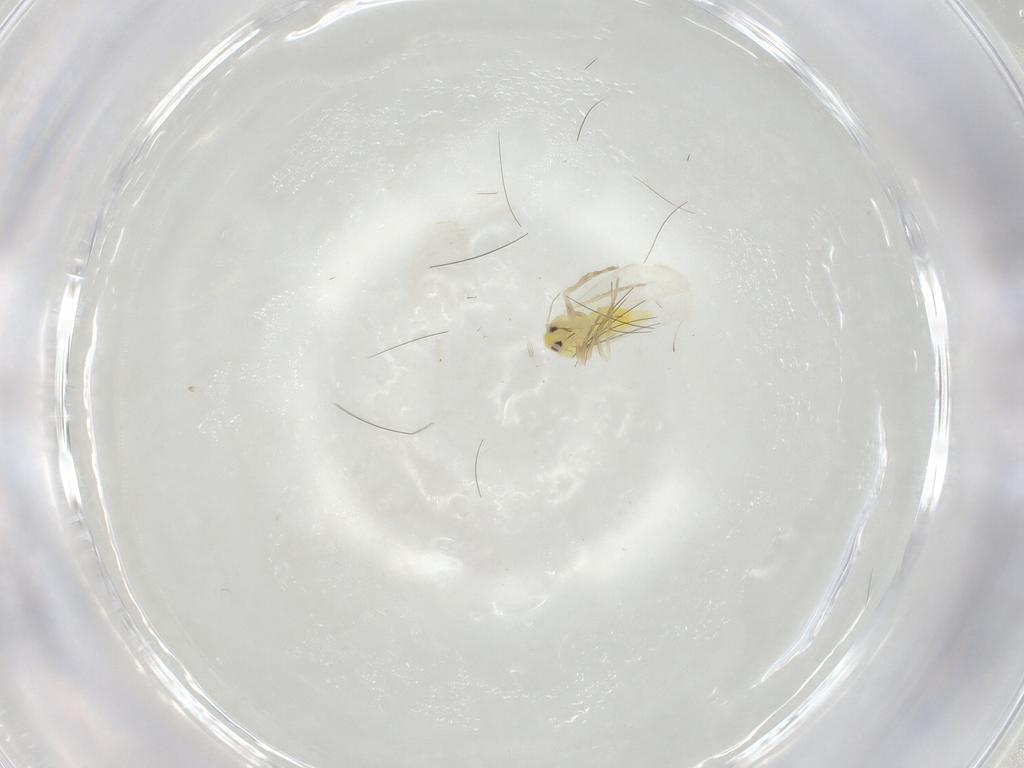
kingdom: Animalia
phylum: Arthropoda
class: Insecta
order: Hemiptera
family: Aleyrodidae
